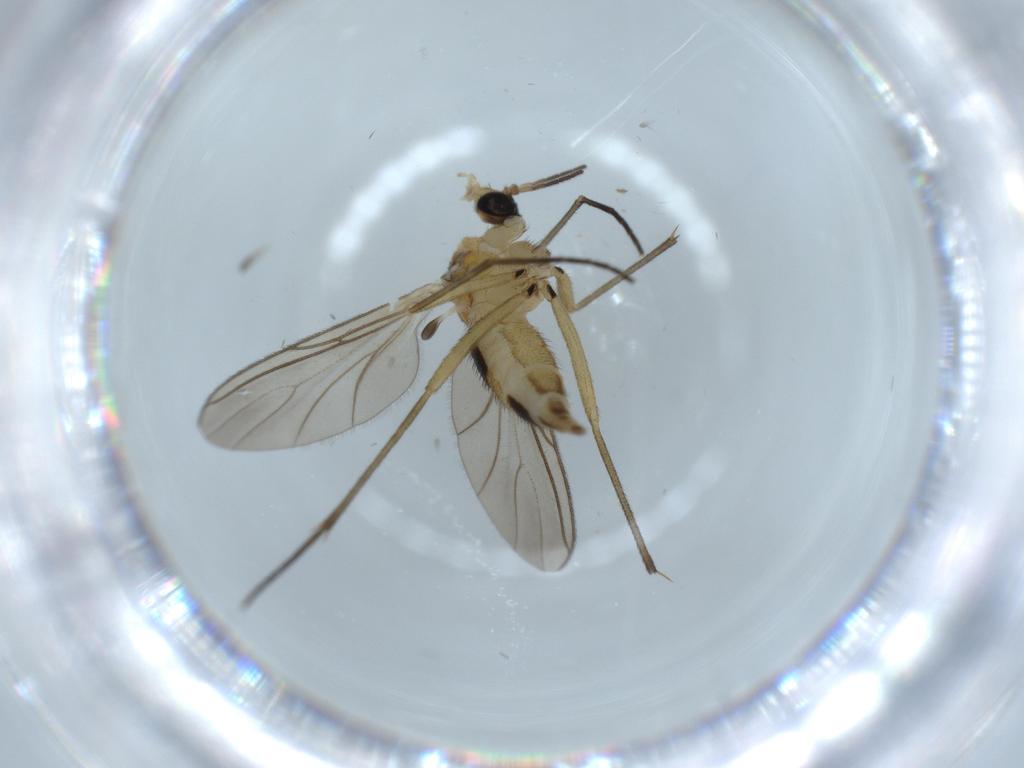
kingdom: Animalia
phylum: Arthropoda
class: Insecta
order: Diptera
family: Sciaridae
